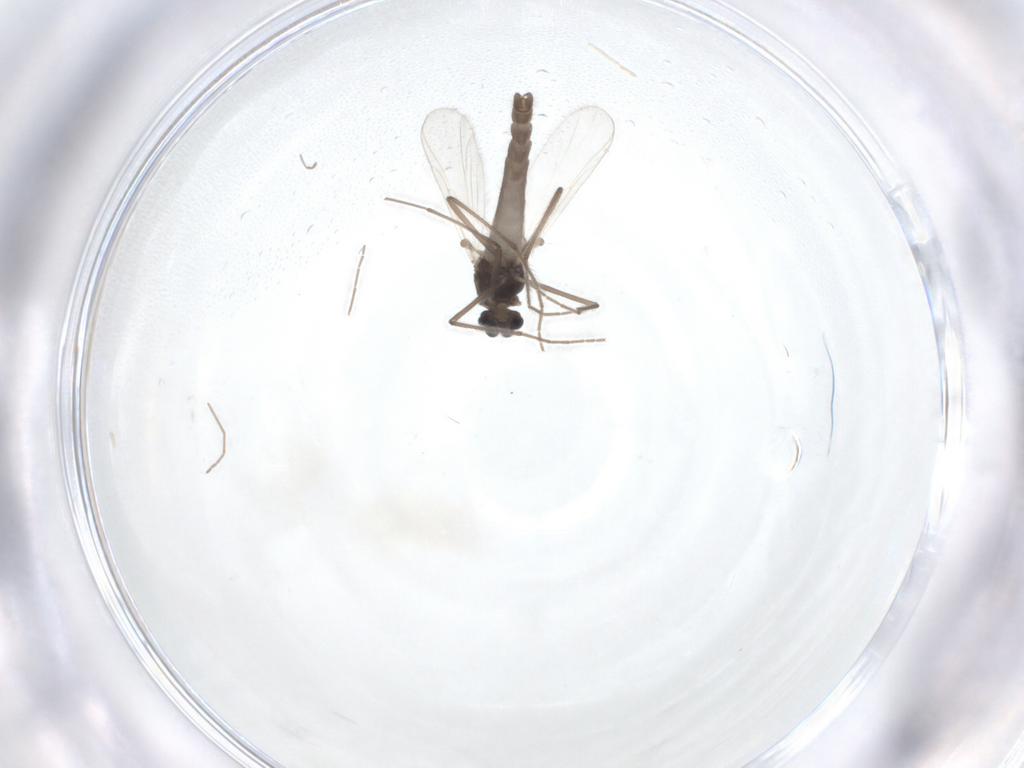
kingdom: Animalia
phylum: Arthropoda
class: Insecta
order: Diptera
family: Chironomidae
